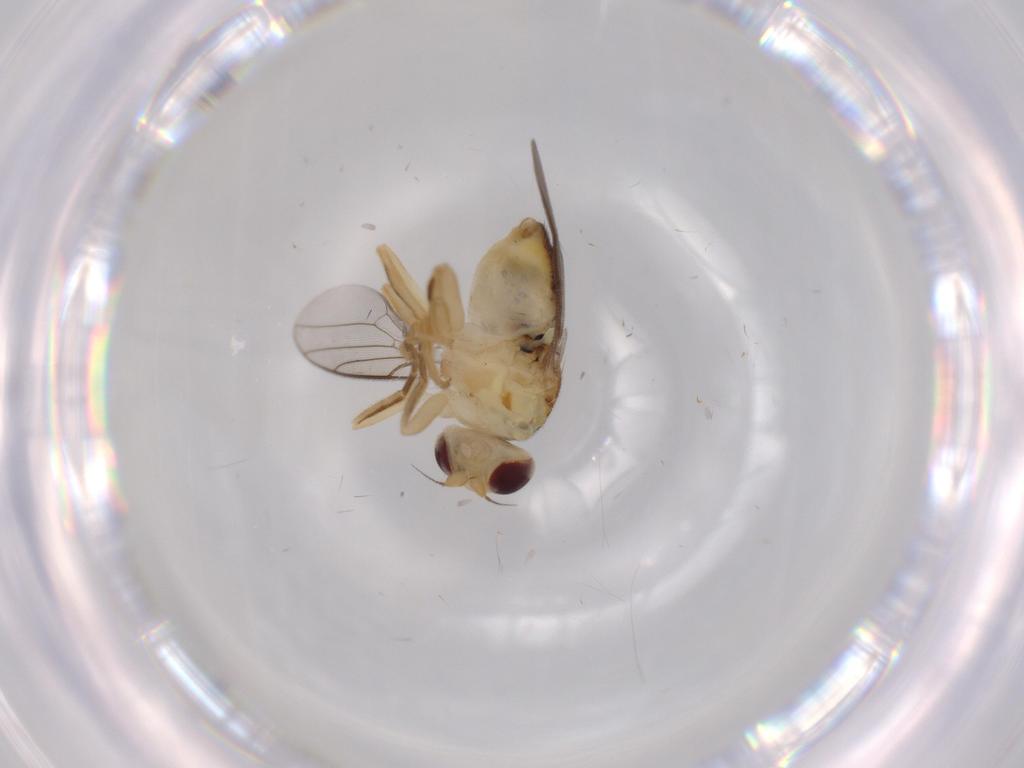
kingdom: Animalia
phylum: Arthropoda
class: Insecta
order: Diptera
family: Chloropidae
